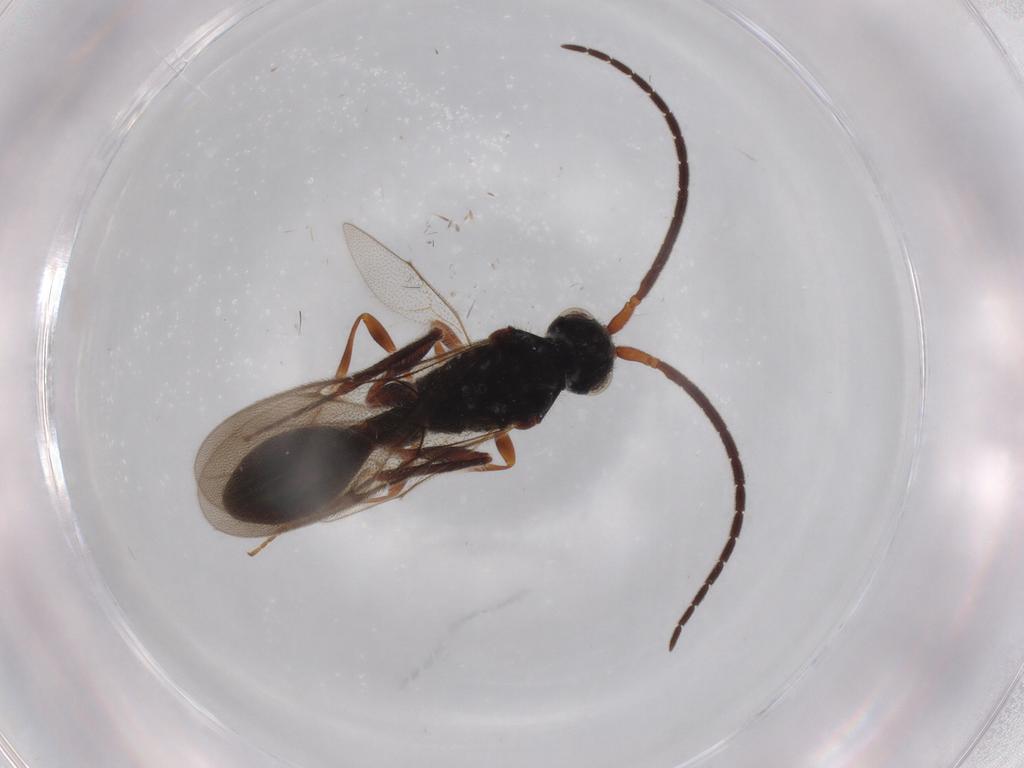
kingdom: Animalia
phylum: Arthropoda
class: Insecta
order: Hymenoptera
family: Diapriidae
